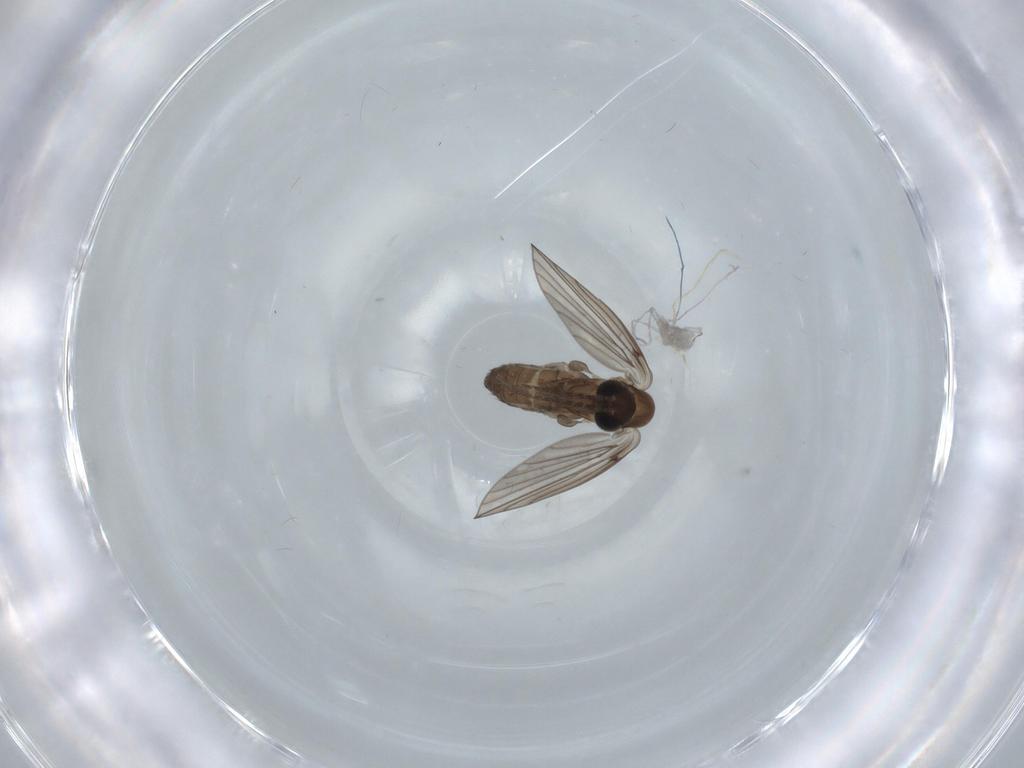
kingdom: Animalia
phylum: Arthropoda
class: Insecta
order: Diptera
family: Psychodidae
